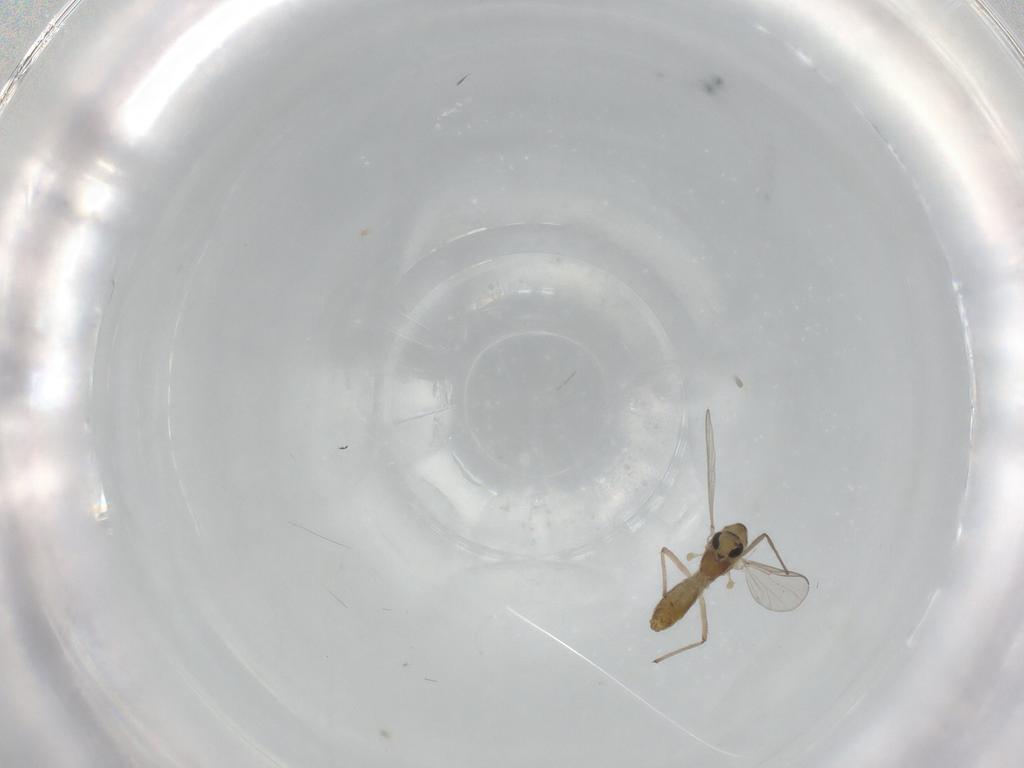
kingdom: Animalia
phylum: Arthropoda
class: Insecta
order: Diptera
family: Chironomidae
